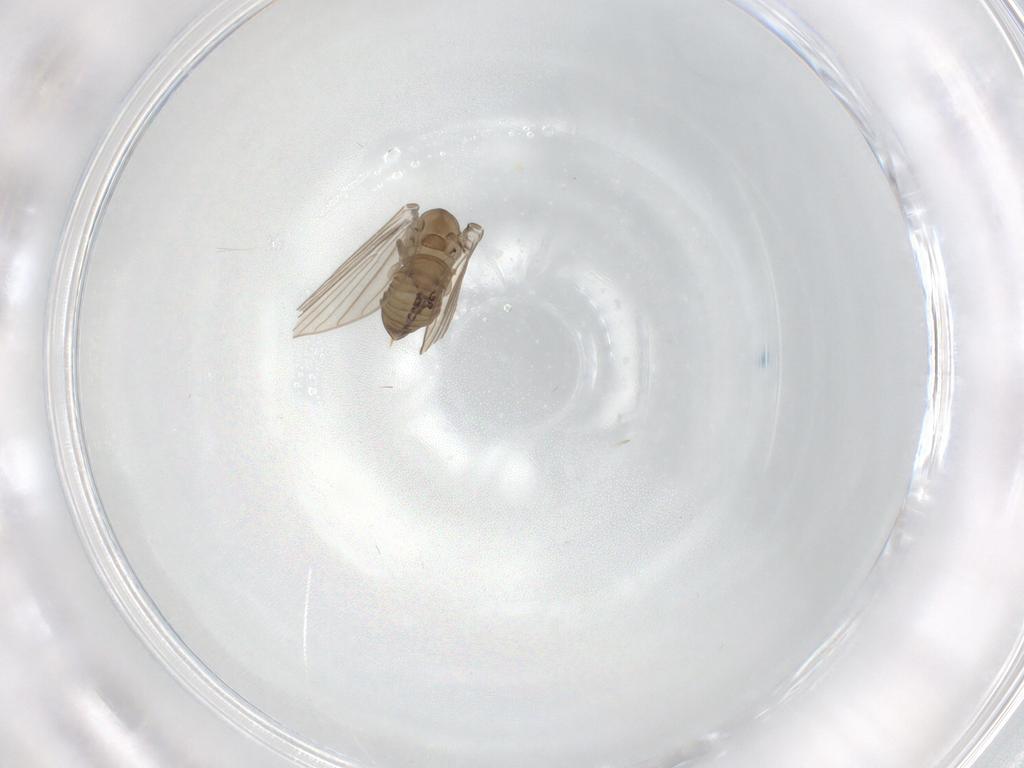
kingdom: Animalia
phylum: Arthropoda
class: Insecta
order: Diptera
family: Psychodidae
